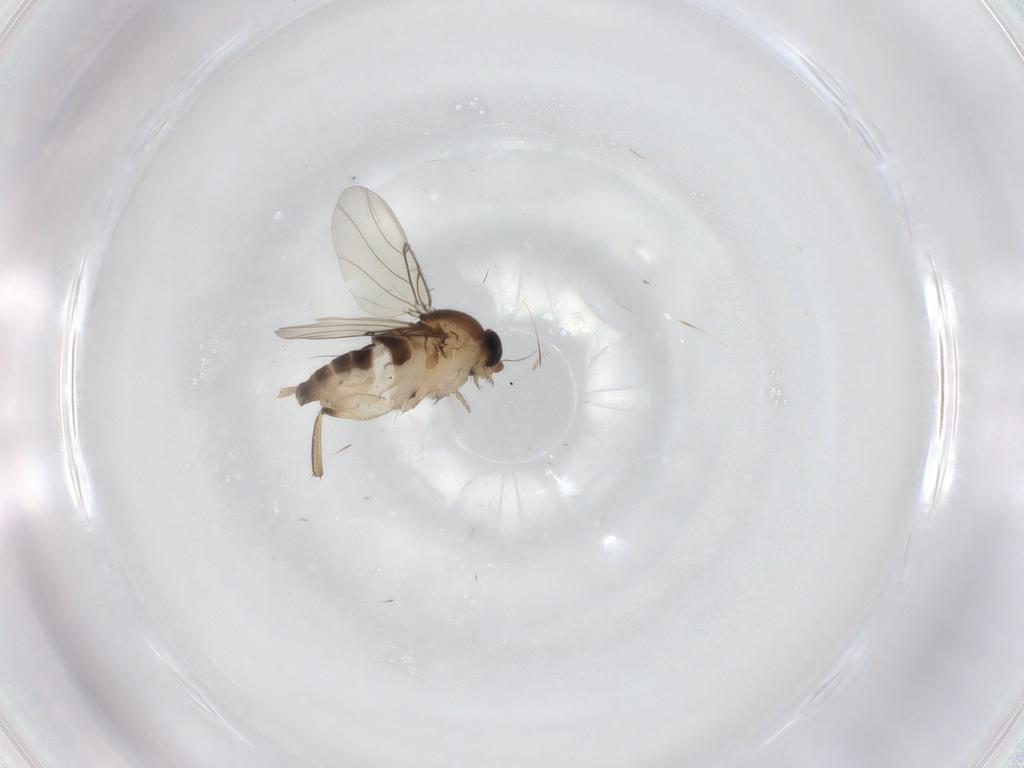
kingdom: Animalia
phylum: Arthropoda
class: Insecta
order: Diptera
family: Phoridae
